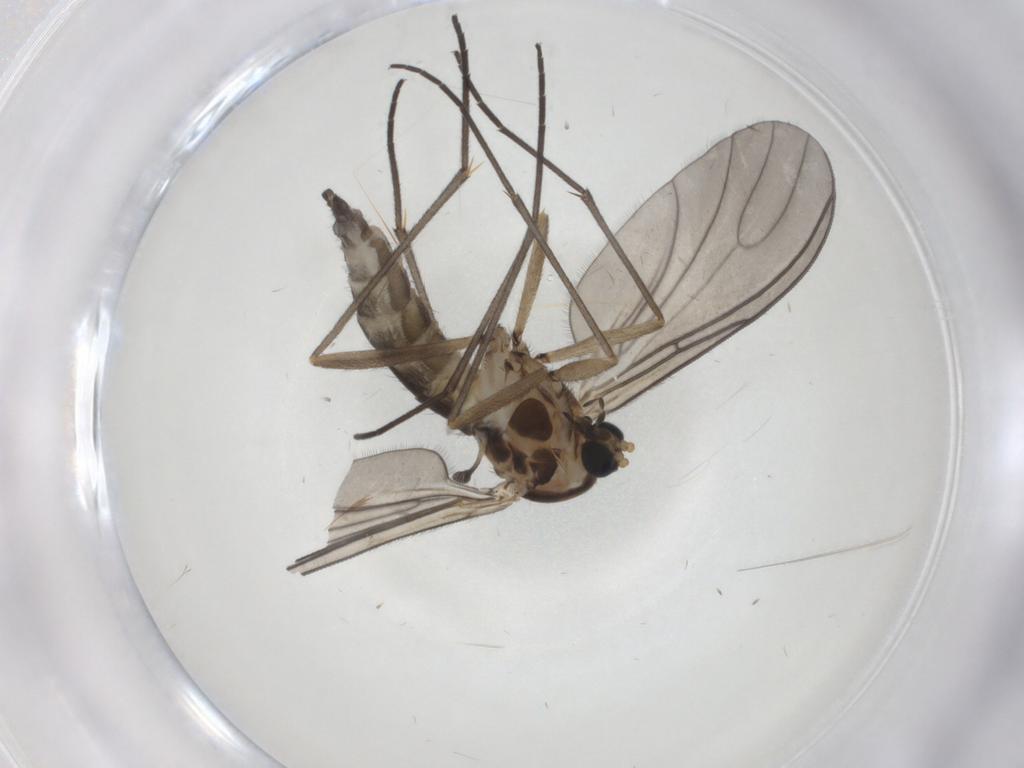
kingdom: Animalia
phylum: Arthropoda
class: Insecta
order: Diptera
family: Sciaridae
